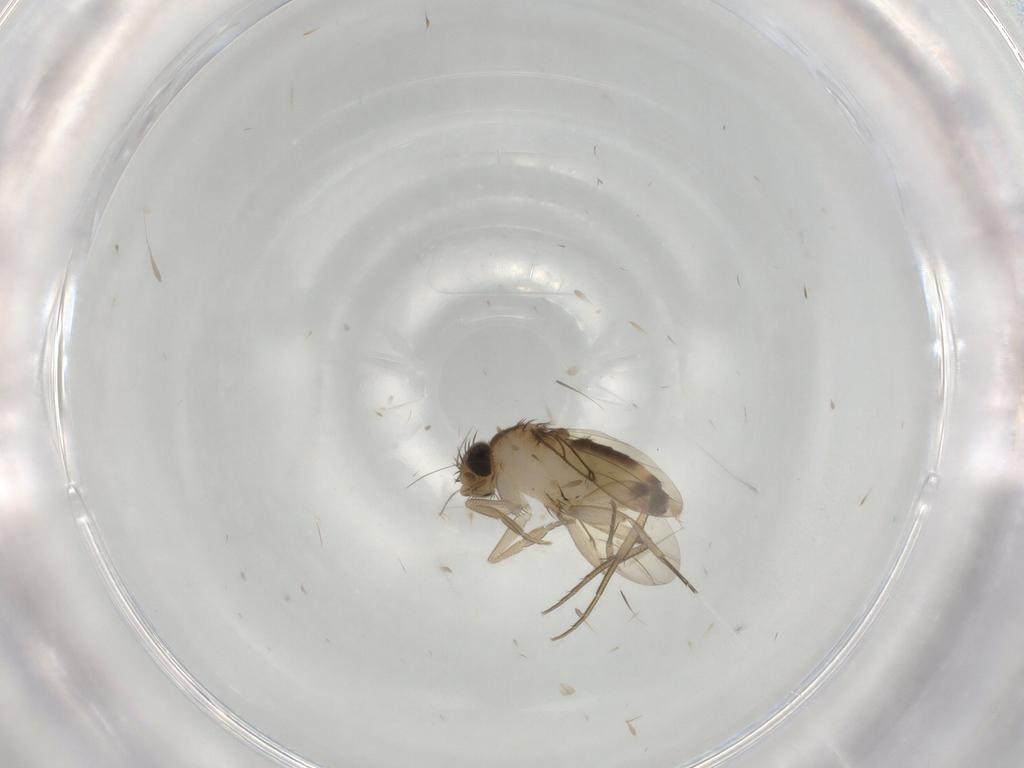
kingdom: Animalia
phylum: Arthropoda
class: Insecta
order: Diptera
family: Phoridae
